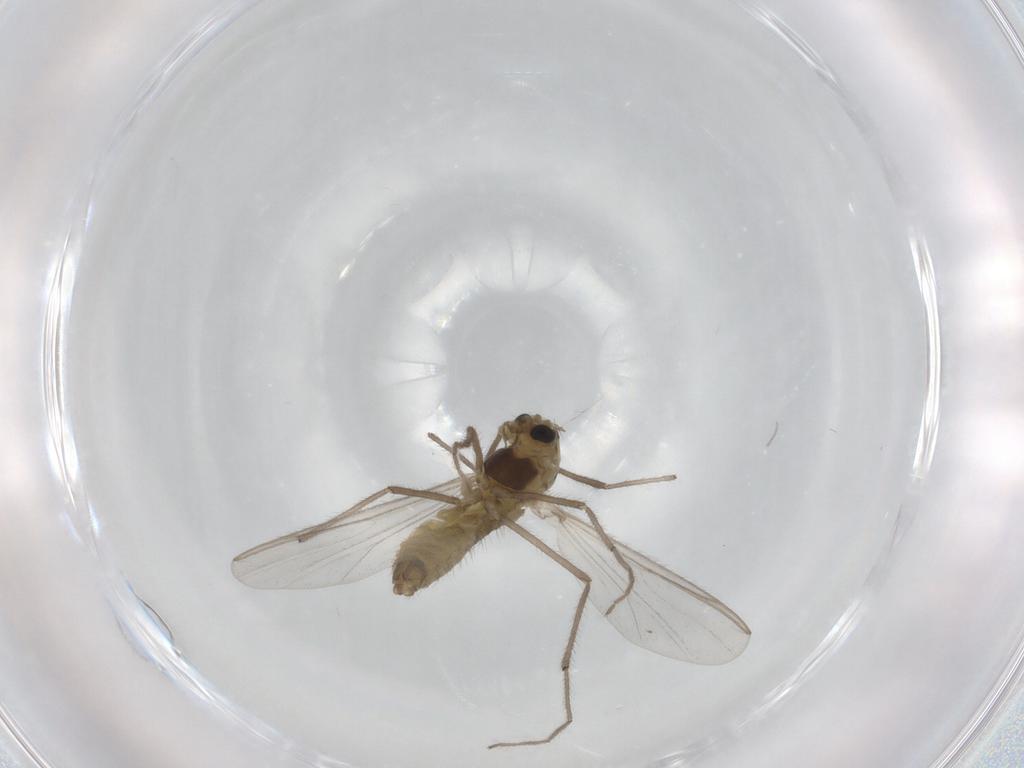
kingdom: Animalia
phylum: Arthropoda
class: Insecta
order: Diptera
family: Chironomidae
